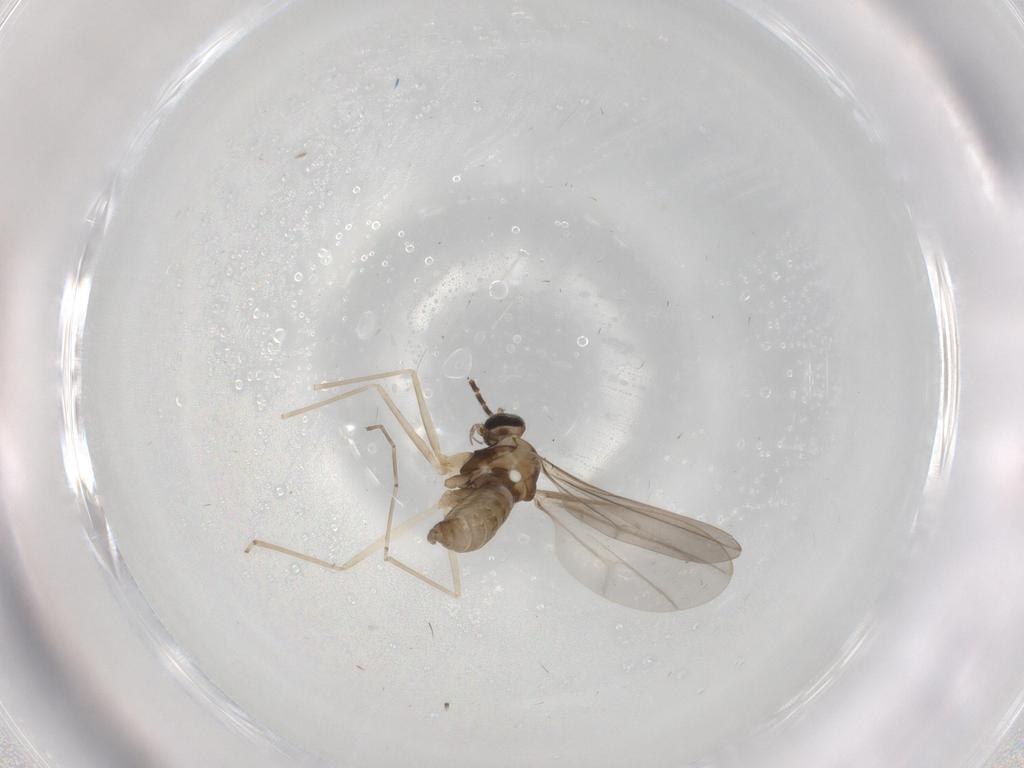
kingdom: Animalia
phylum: Arthropoda
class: Insecta
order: Diptera
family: Cecidomyiidae
